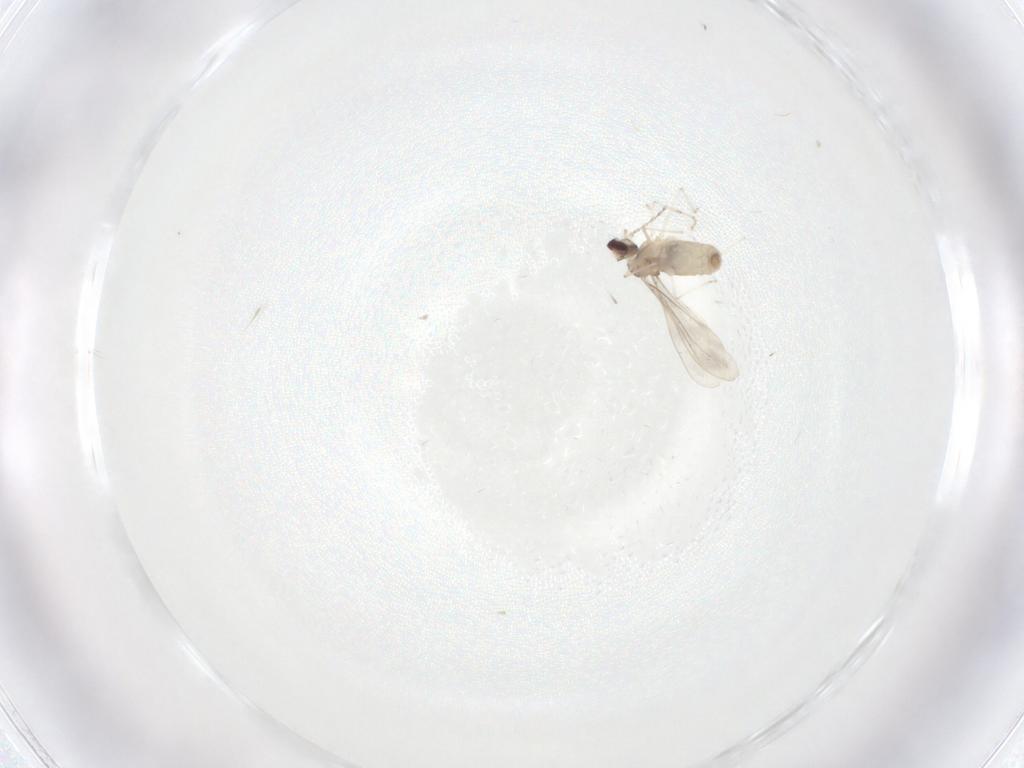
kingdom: Animalia
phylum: Arthropoda
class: Insecta
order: Diptera
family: Cecidomyiidae
